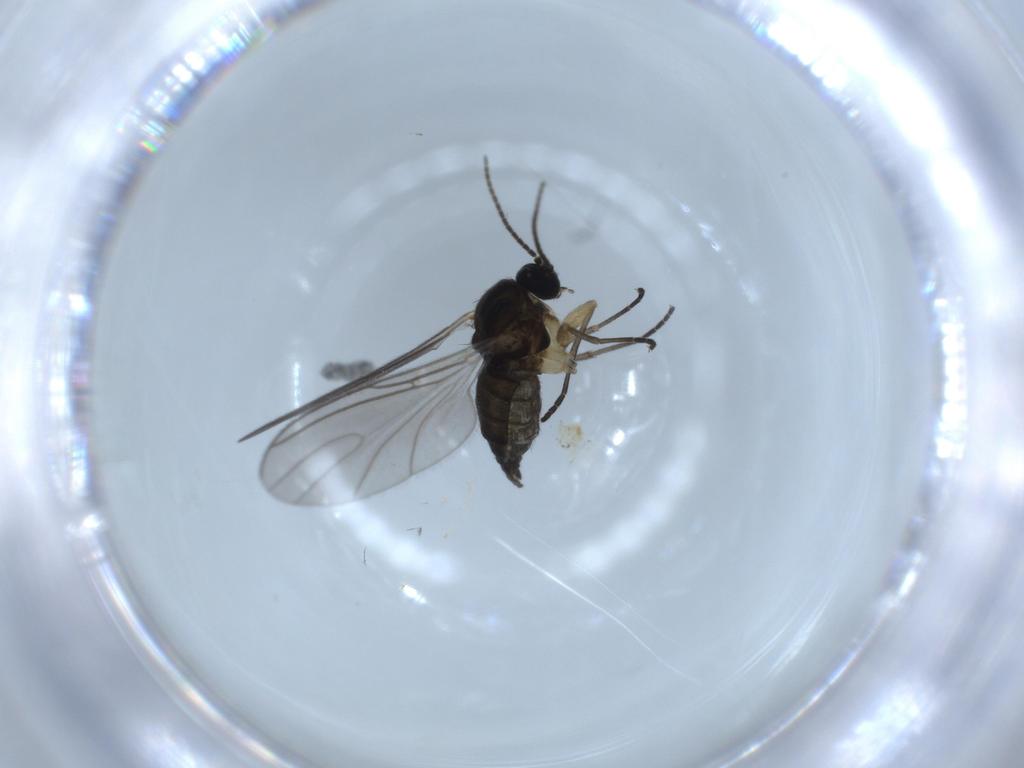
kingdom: Animalia
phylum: Arthropoda
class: Insecta
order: Diptera
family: Sciaridae
